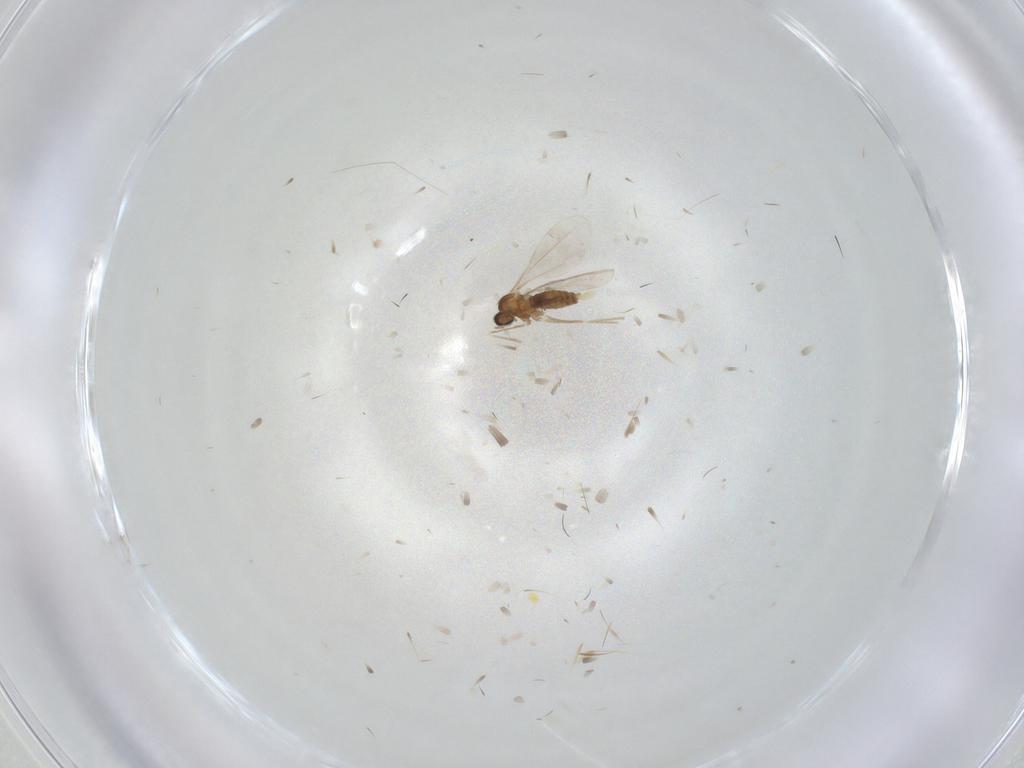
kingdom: Animalia
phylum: Arthropoda
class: Insecta
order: Diptera
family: Cecidomyiidae
